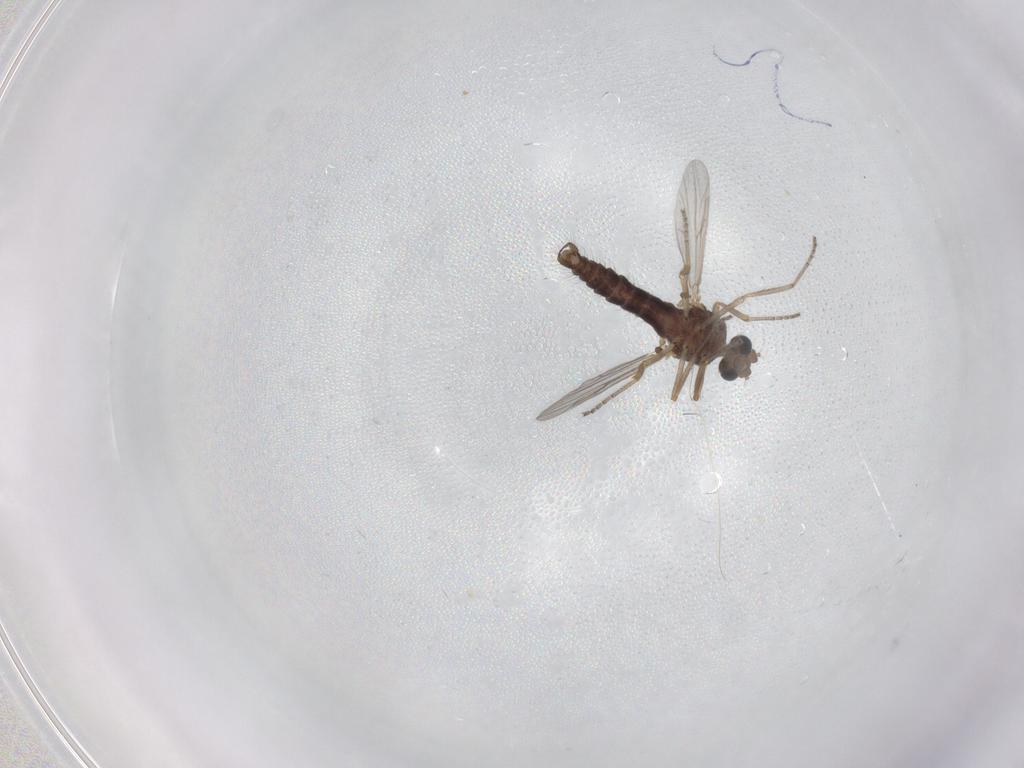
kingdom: Animalia
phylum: Arthropoda
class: Insecta
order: Diptera
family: Ceratopogonidae
